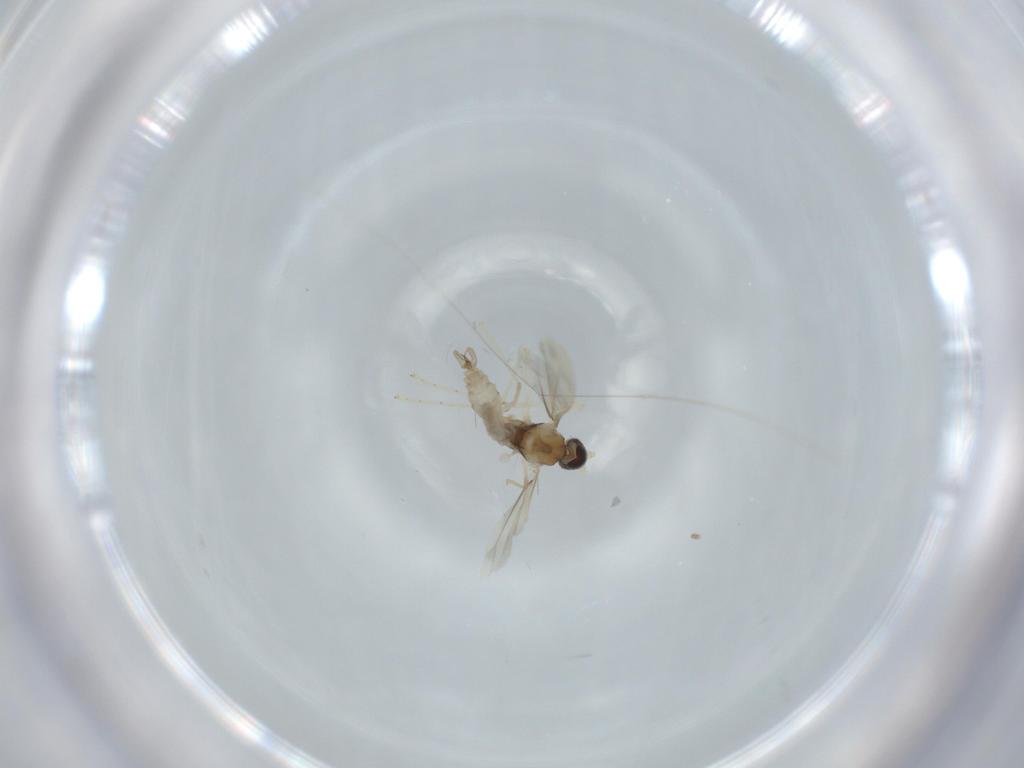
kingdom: Animalia
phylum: Arthropoda
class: Insecta
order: Diptera
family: Cecidomyiidae
